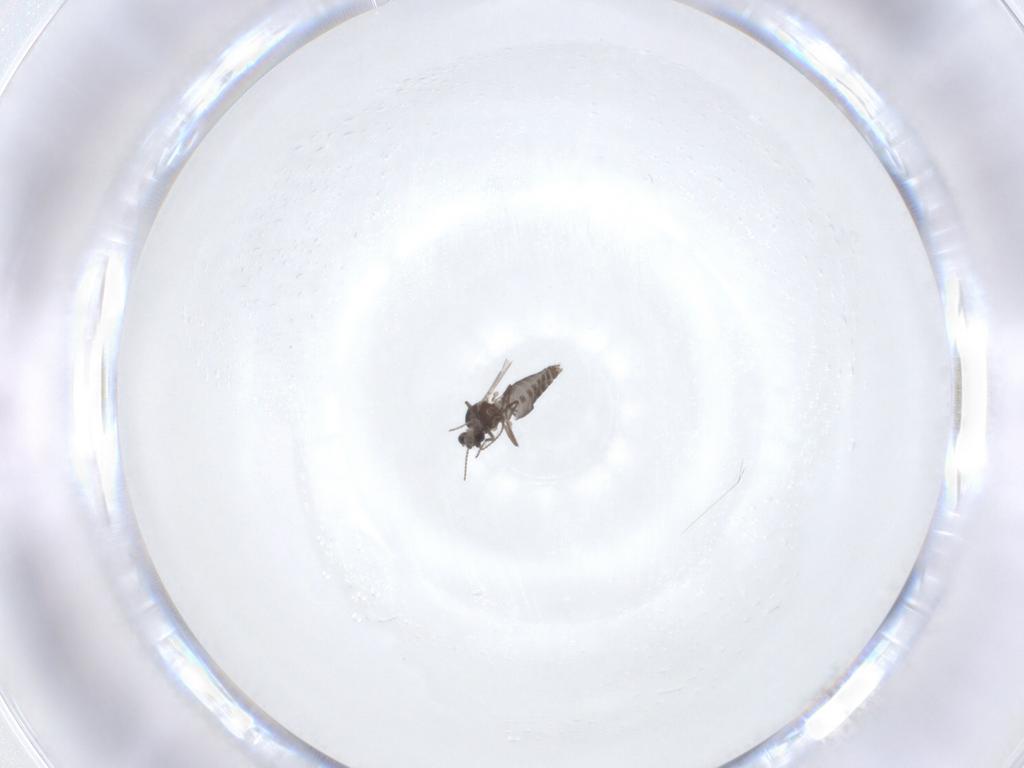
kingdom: Animalia
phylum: Arthropoda
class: Insecta
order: Diptera
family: Ceratopogonidae
